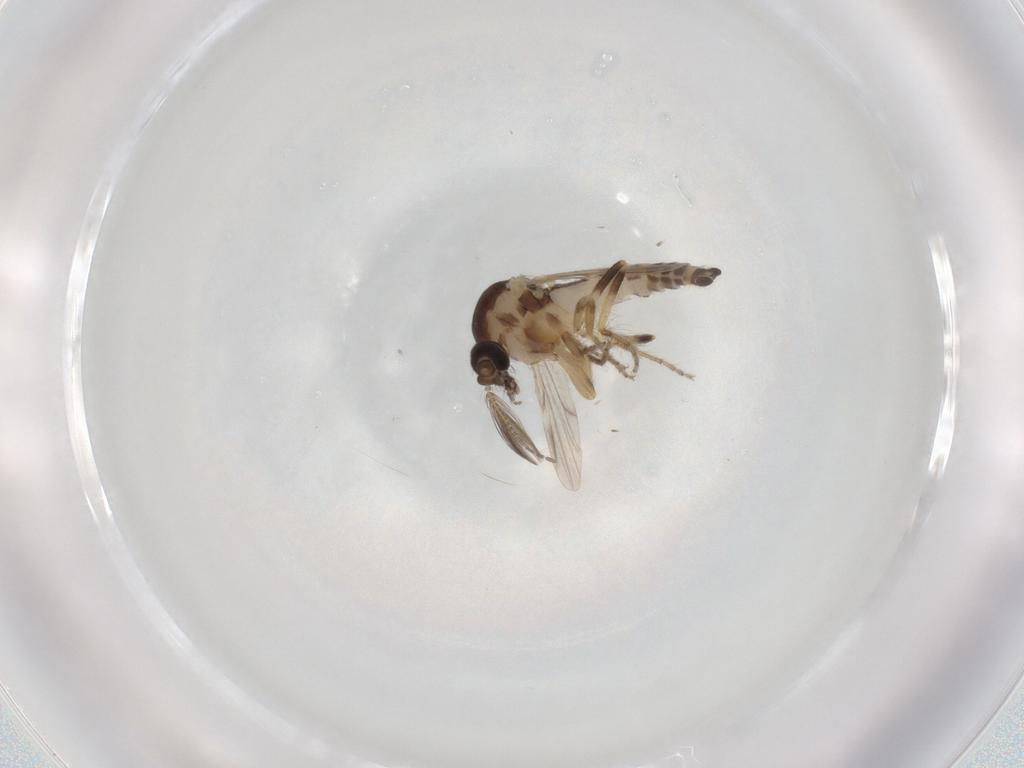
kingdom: Animalia
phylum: Arthropoda
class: Insecta
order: Diptera
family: Ceratopogonidae
